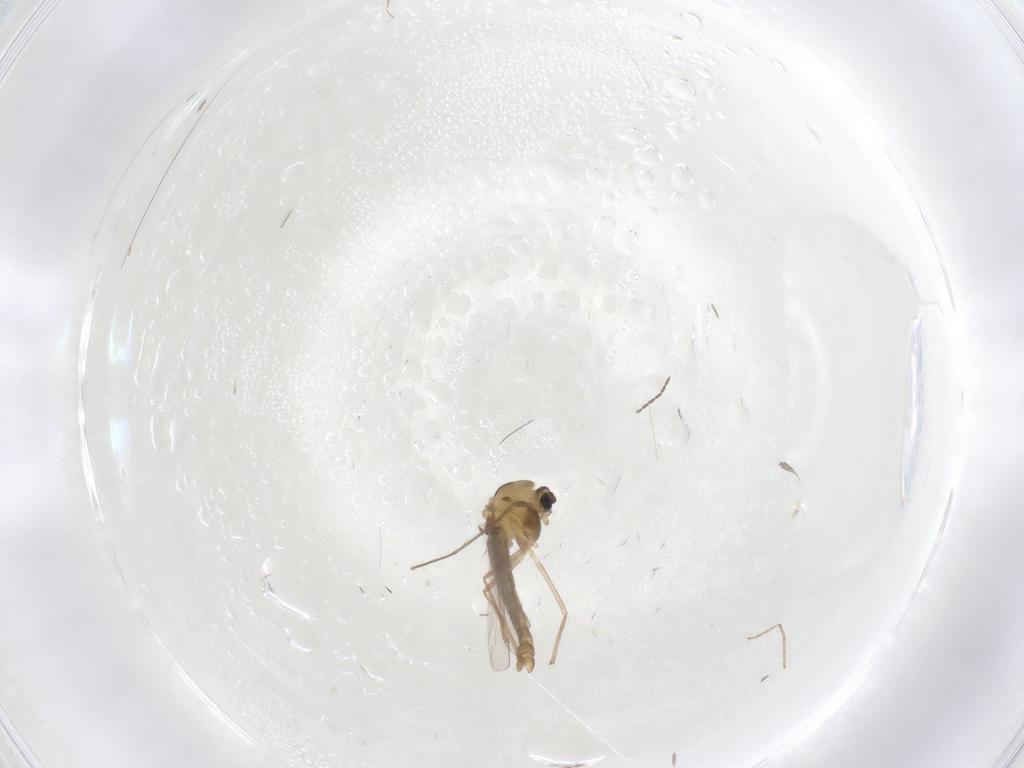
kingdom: Animalia
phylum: Arthropoda
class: Insecta
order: Diptera
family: Chironomidae
